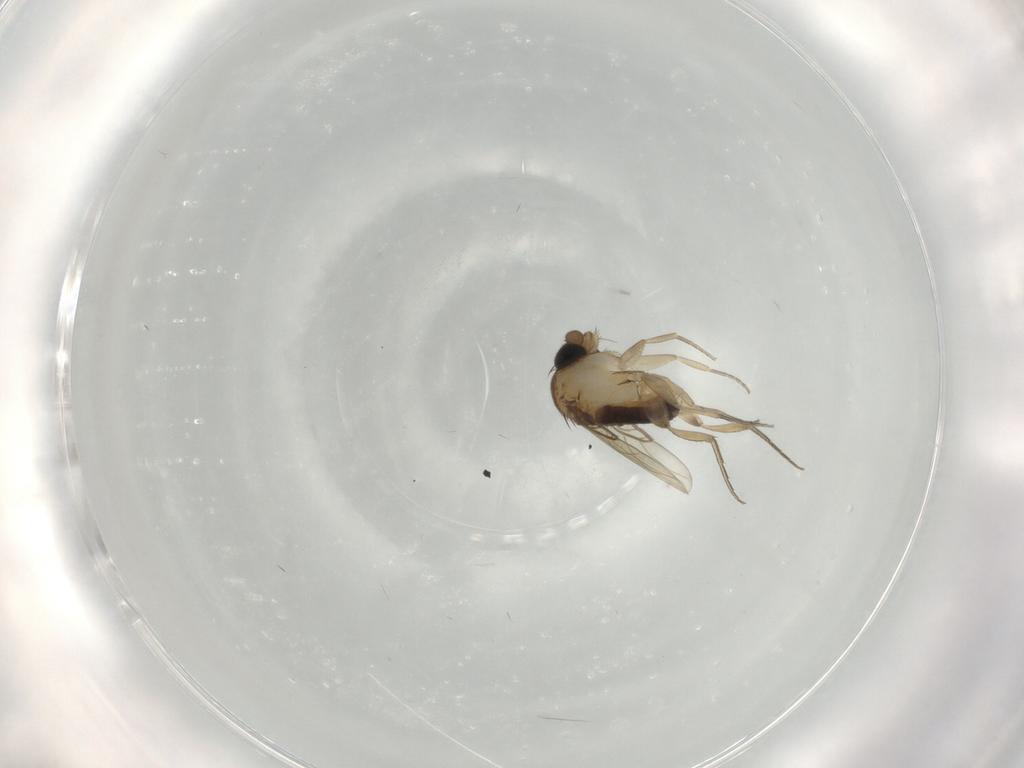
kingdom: Animalia
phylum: Arthropoda
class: Insecta
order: Diptera
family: Phoridae
